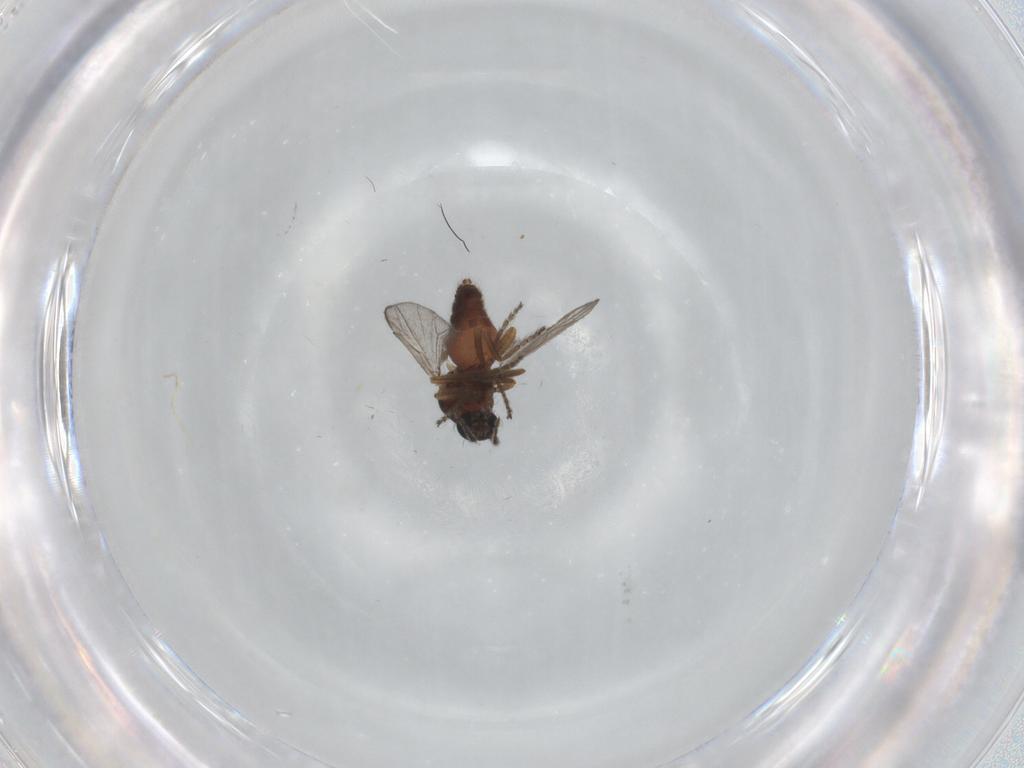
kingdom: Animalia
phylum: Arthropoda
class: Insecta
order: Diptera
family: Ceratopogonidae
